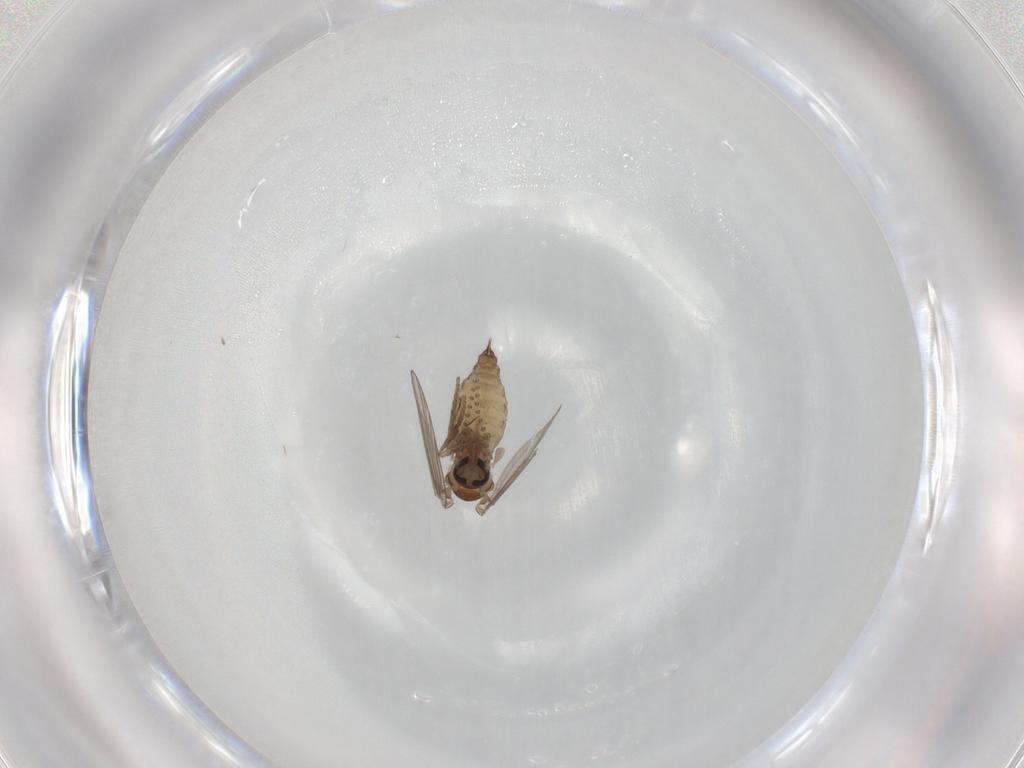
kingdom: Animalia
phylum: Arthropoda
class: Insecta
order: Diptera
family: Psychodidae
